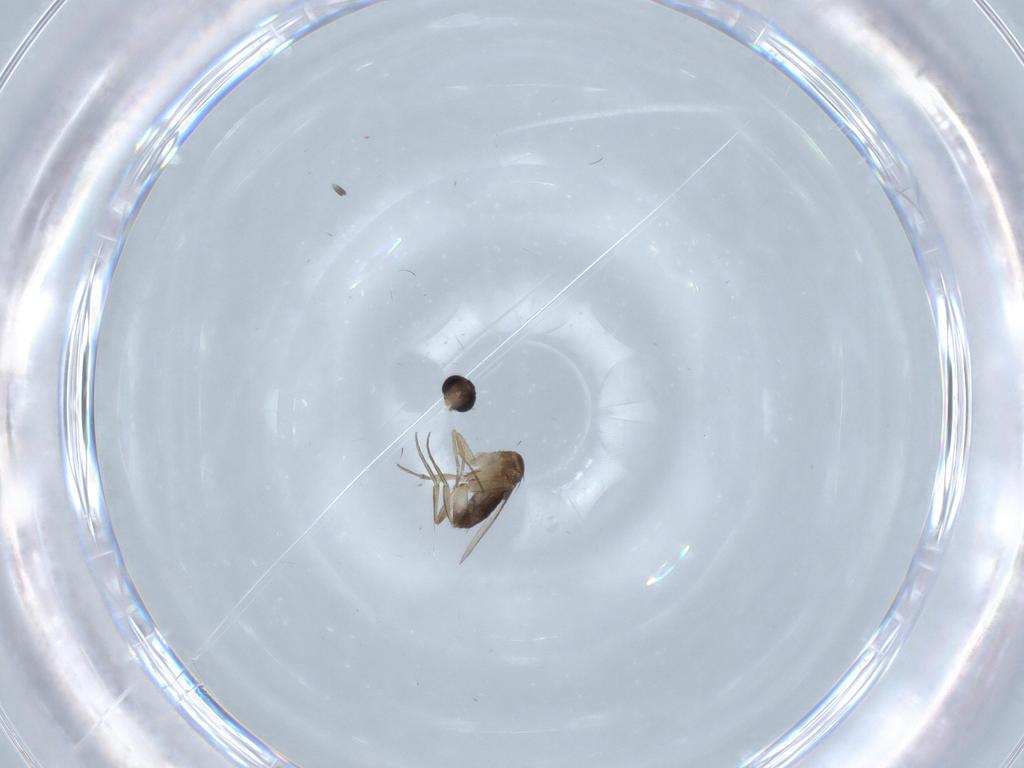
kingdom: Animalia
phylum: Arthropoda
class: Insecta
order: Diptera
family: Phoridae
